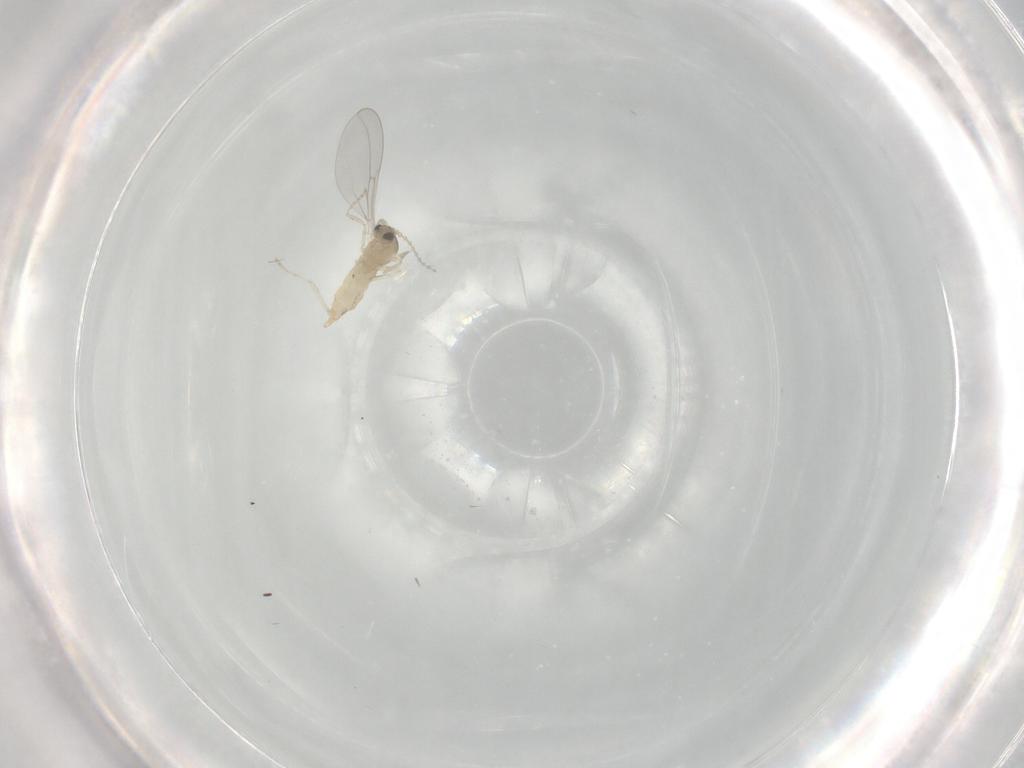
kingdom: Animalia
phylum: Arthropoda
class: Insecta
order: Diptera
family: Cecidomyiidae
